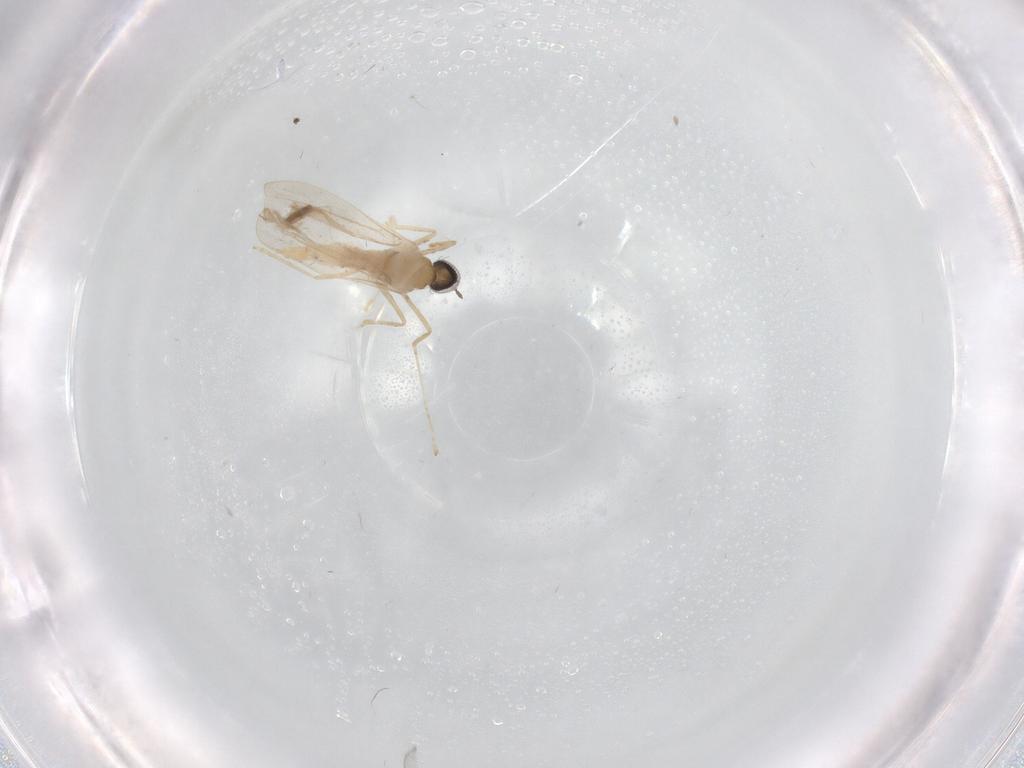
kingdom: Animalia
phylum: Arthropoda
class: Insecta
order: Diptera
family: Cecidomyiidae
